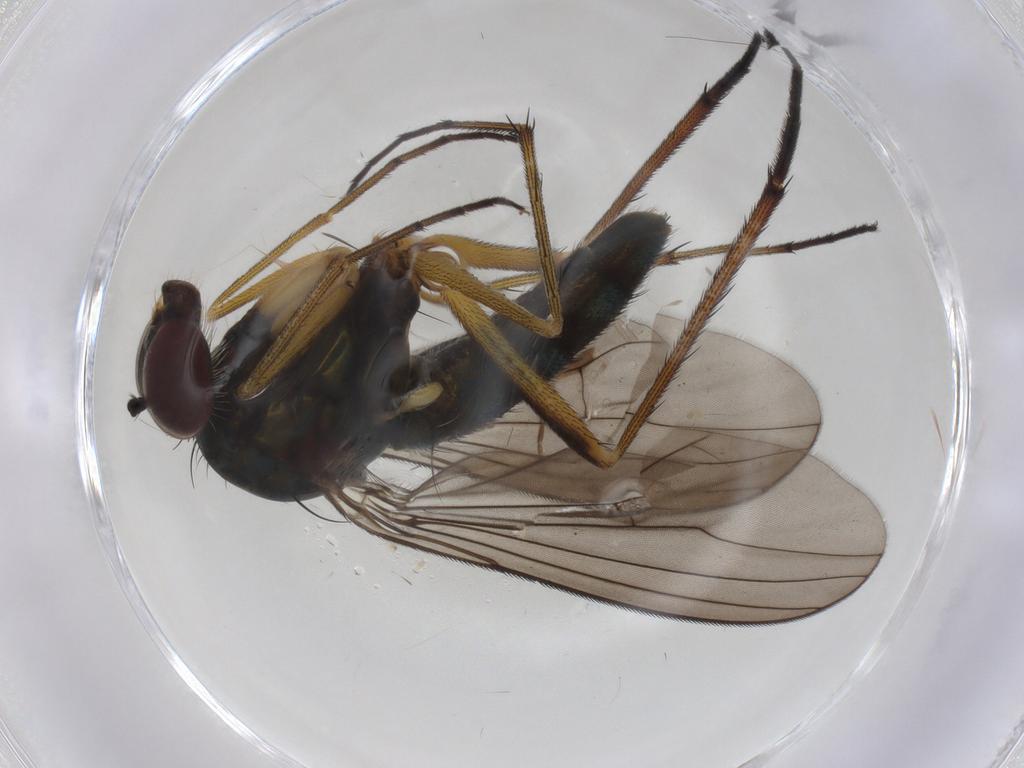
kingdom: Animalia
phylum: Arthropoda
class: Insecta
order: Diptera
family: Dolichopodidae
